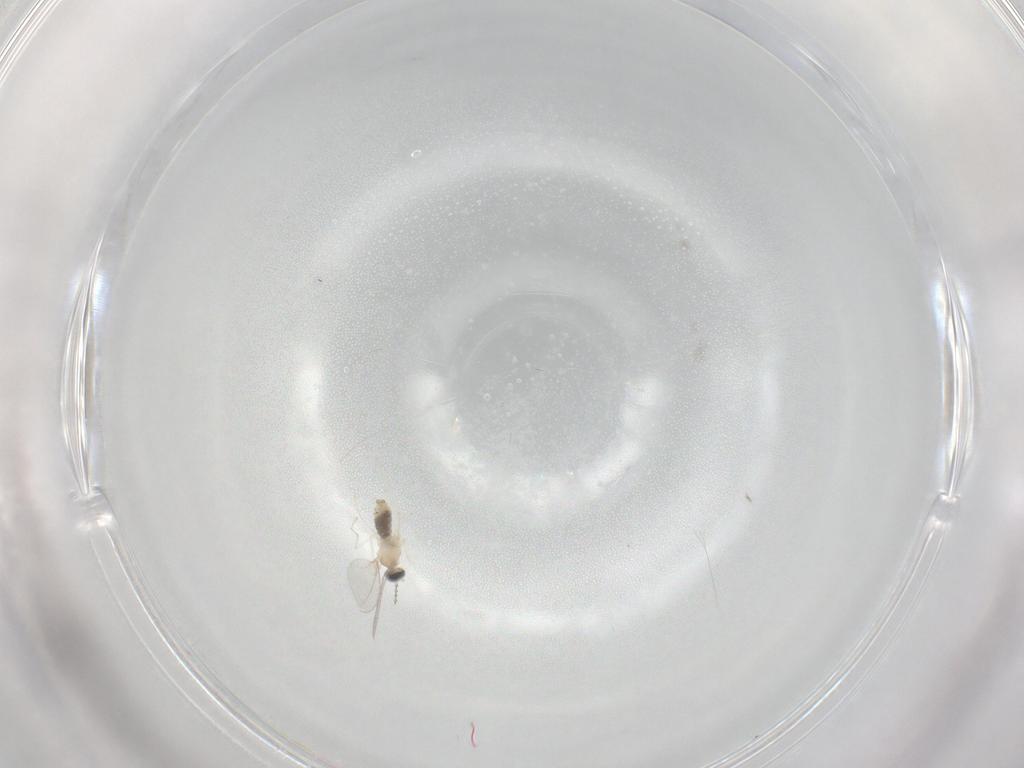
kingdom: Animalia
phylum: Arthropoda
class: Insecta
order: Diptera
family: Cecidomyiidae
